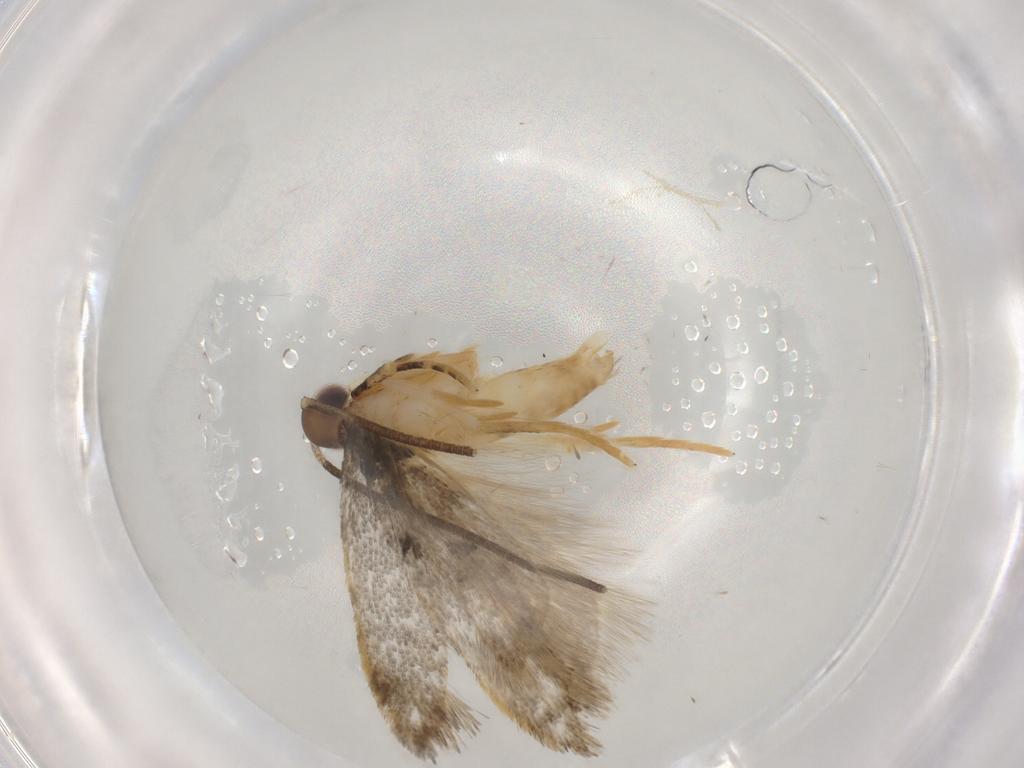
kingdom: Animalia
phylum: Arthropoda
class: Insecta
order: Lepidoptera
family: Autostichidae
